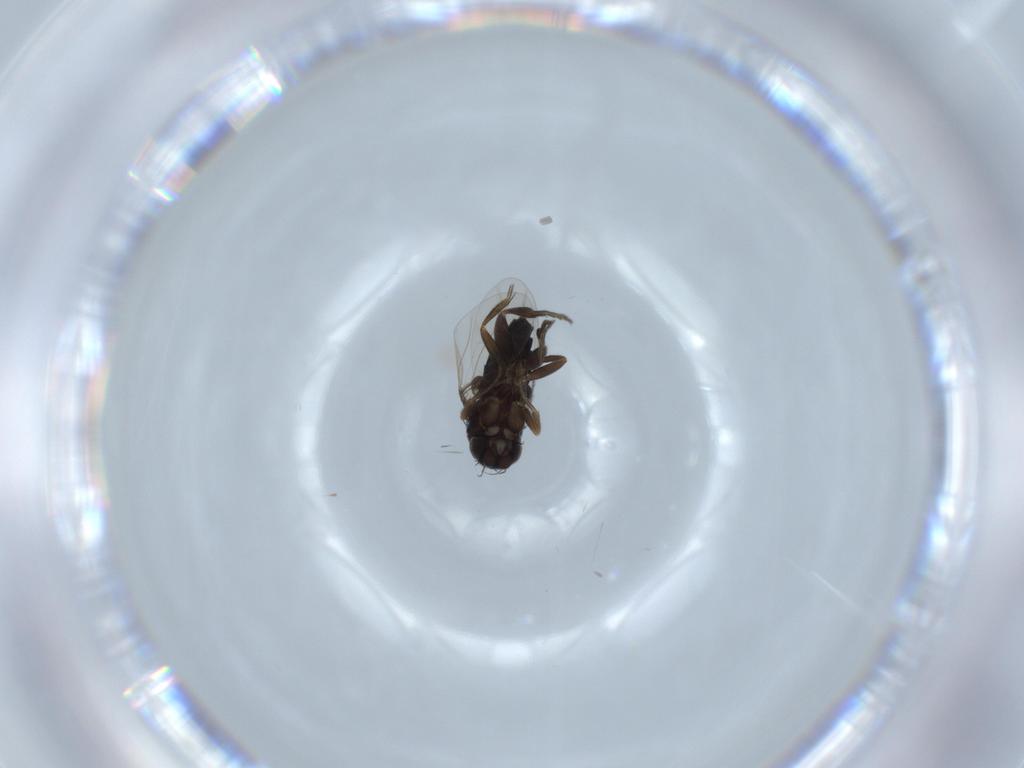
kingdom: Animalia
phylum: Arthropoda
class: Insecta
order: Diptera
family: Phoridae
